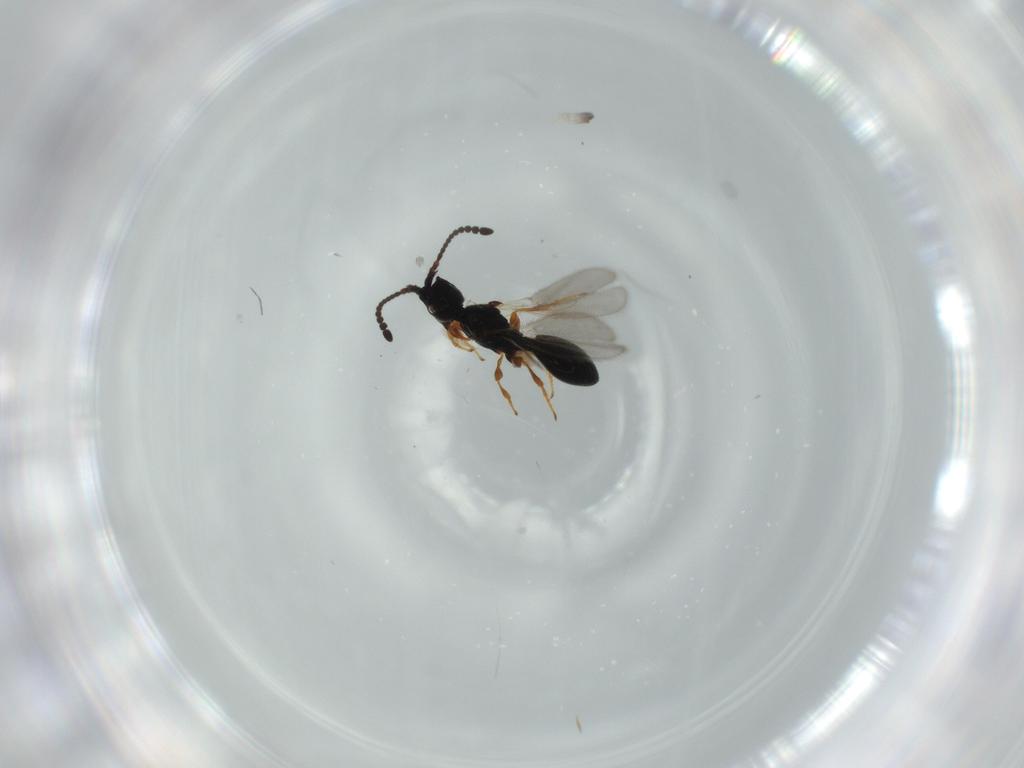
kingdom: Animalia
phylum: Arthropoda
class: Insecta
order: Hymenoptera
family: Diapriidae
